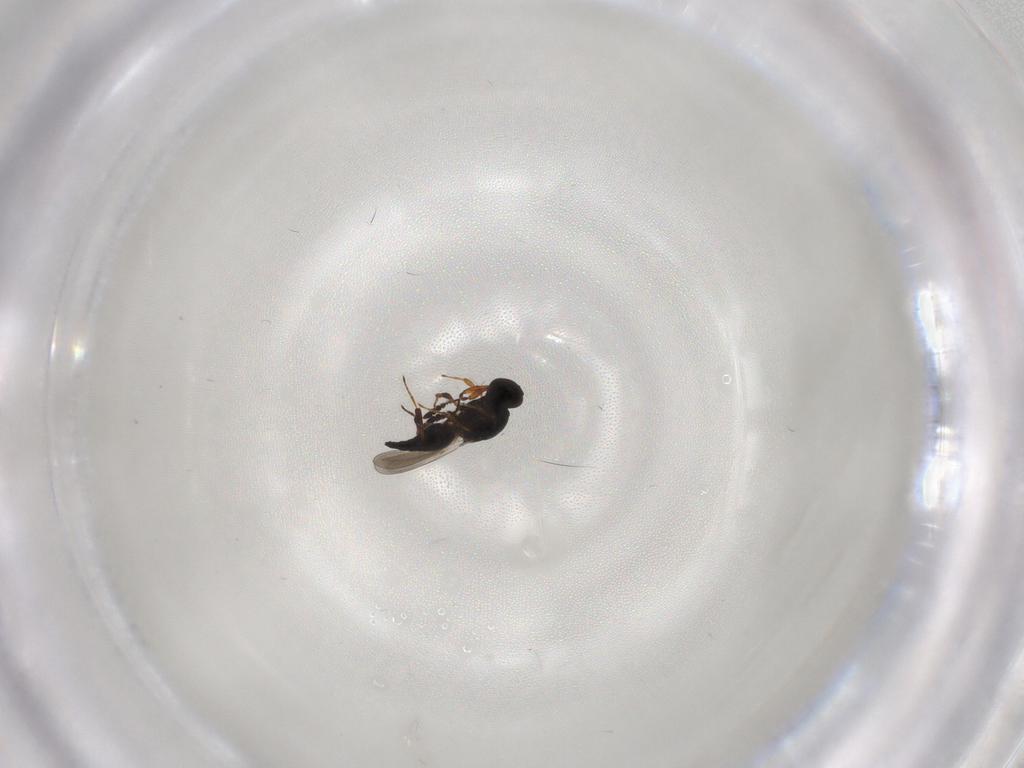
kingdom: Animalia
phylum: Arthropoda
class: Insecta
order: Hymenoptera
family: Platygastridae
